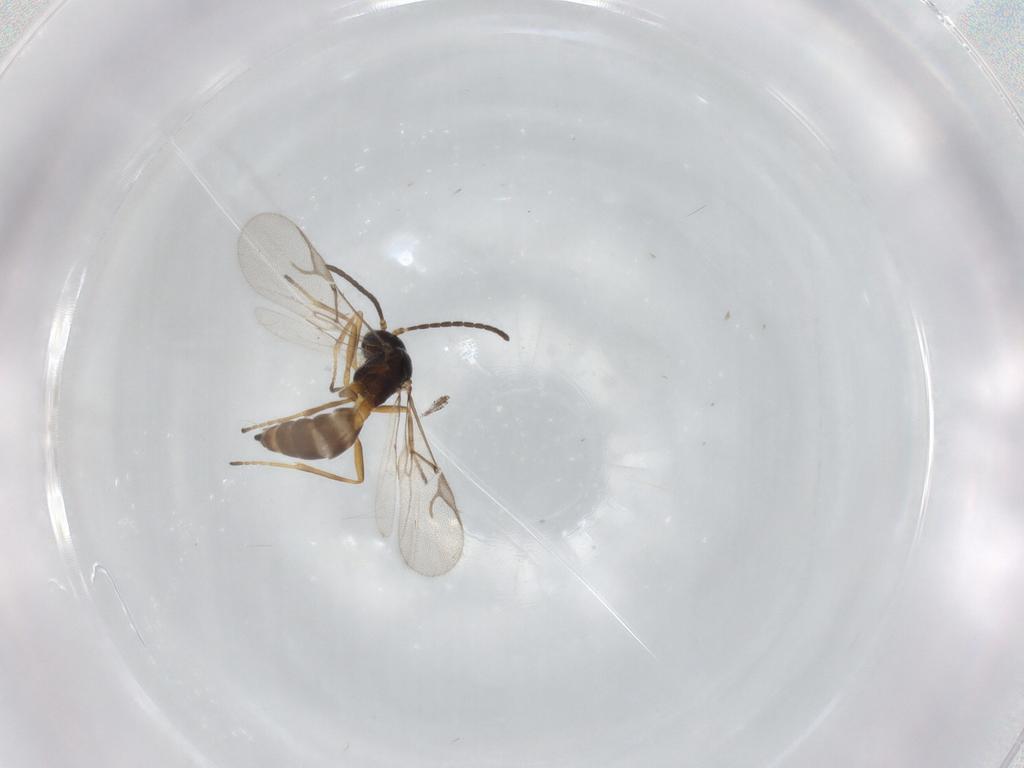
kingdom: Animalia
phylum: Arthropoda
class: Insecta
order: Hymenoptera
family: Braconidae
